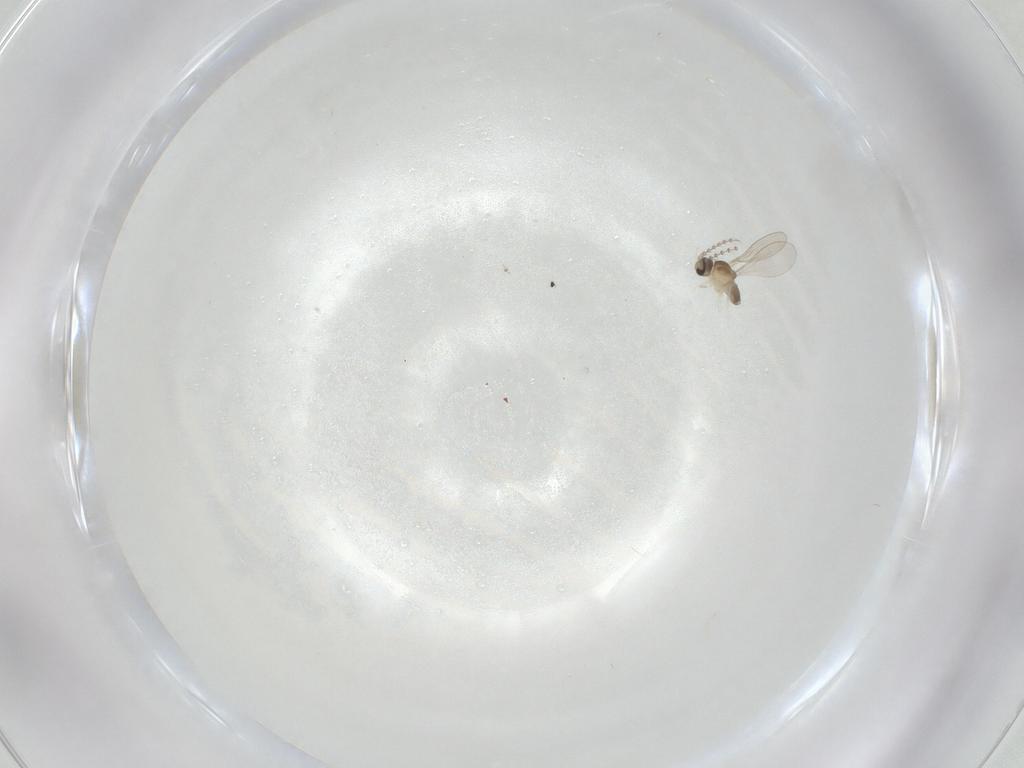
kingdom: Animalia
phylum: Arthropoda
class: Insecta
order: Diptera
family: Cecidomyiidae
